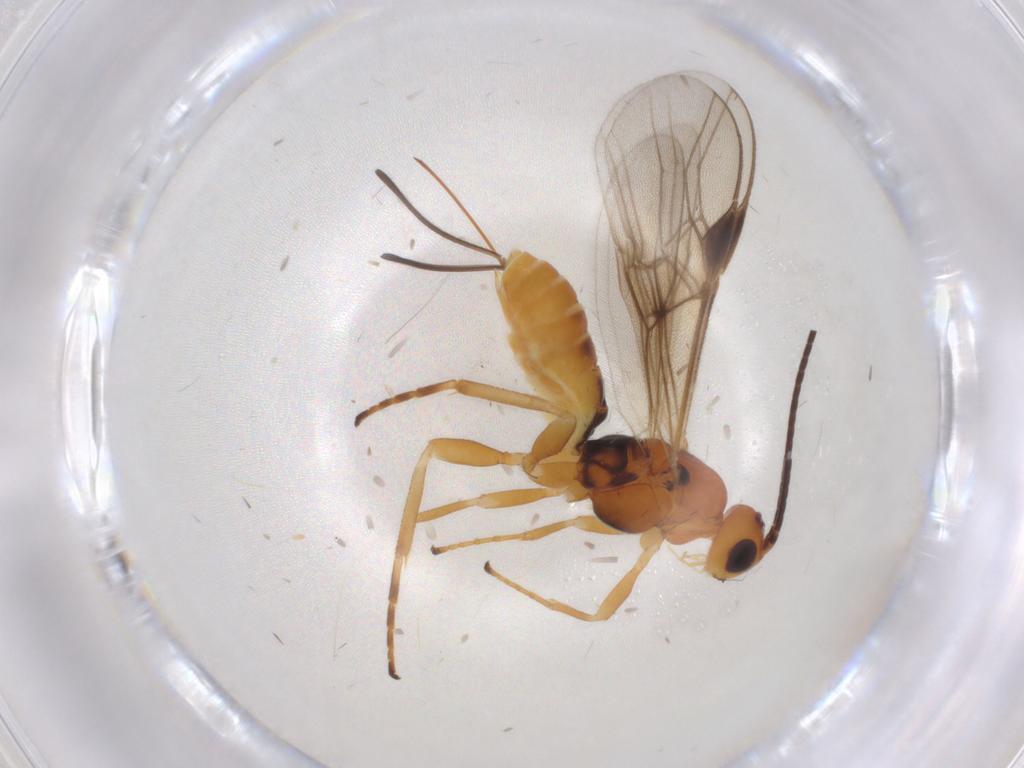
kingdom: Animalia
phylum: Arthropoda
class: Insecta
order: Hymenoptera
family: Braconidae
